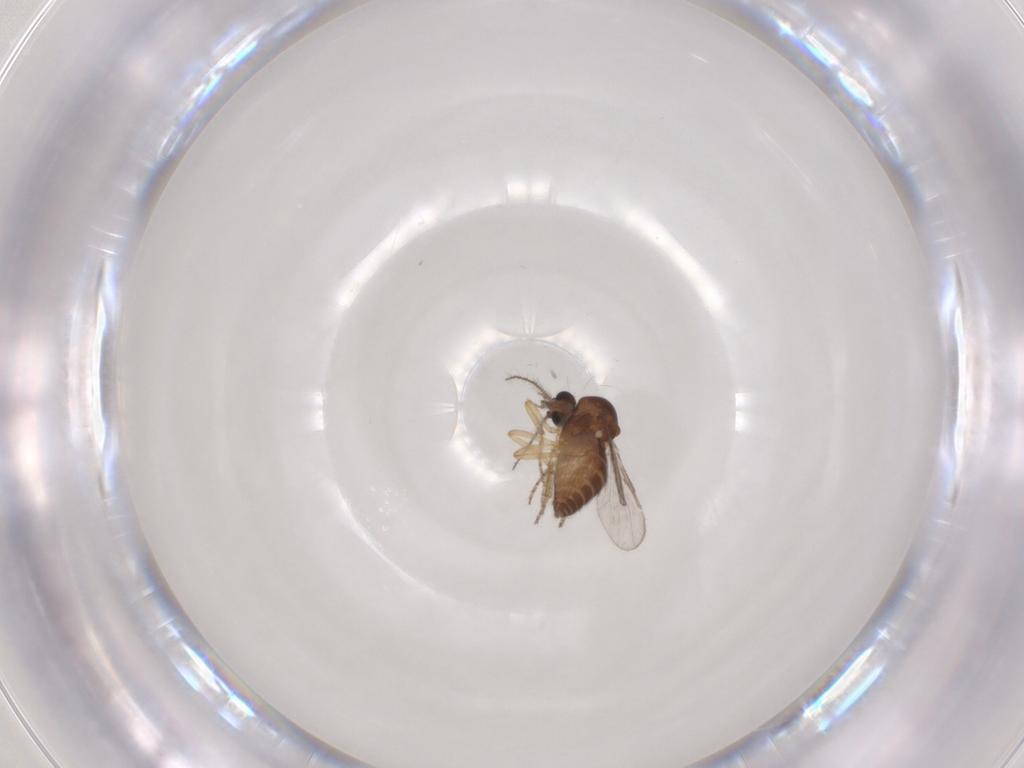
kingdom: Animalia
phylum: Arthropoda
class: Insecta
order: Diptera
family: Ceratopogonidae
